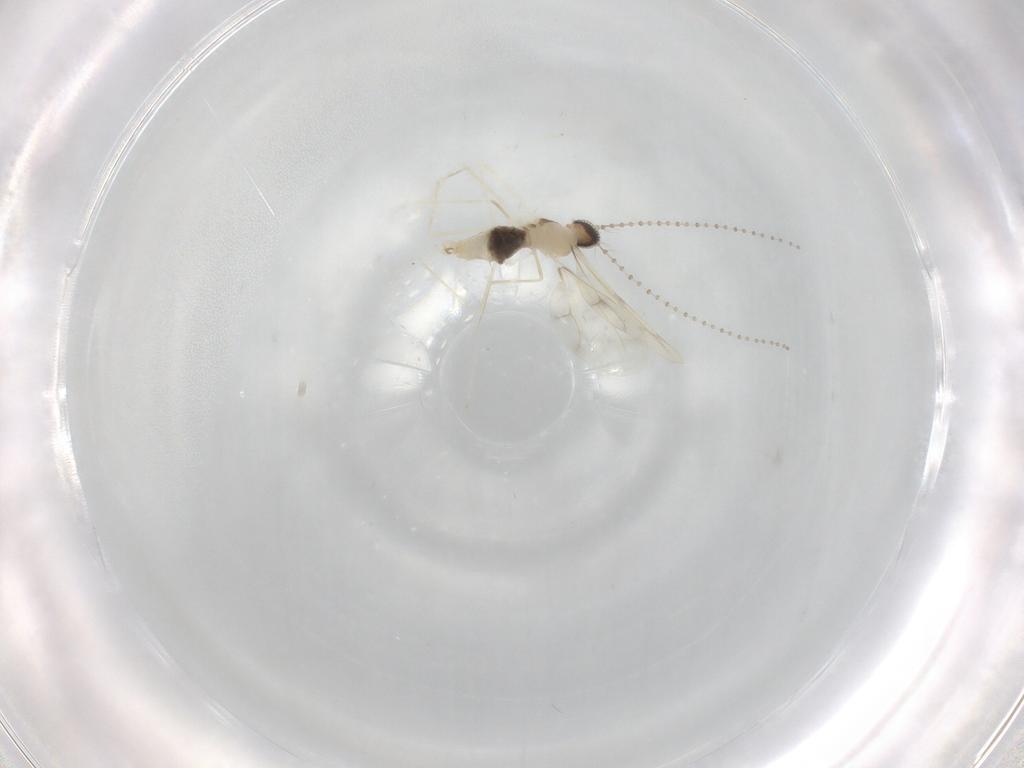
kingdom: Animalia
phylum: Arthropoda
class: Insecta
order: Diptera
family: Cecidomyiidae
